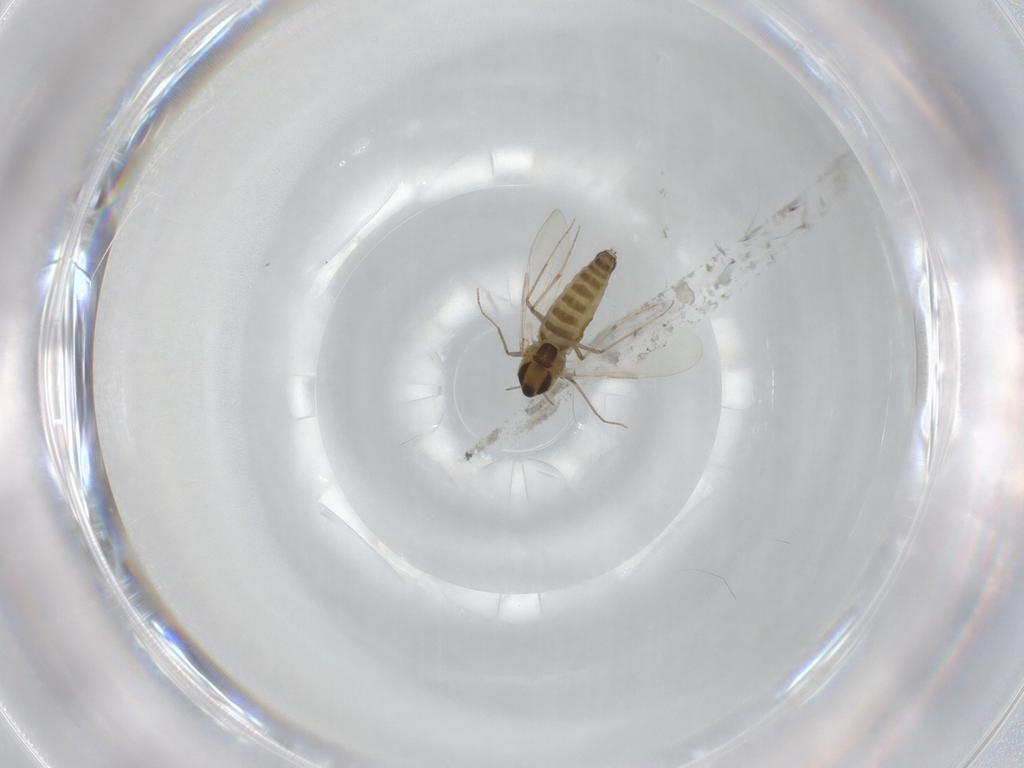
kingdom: Animalia
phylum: Arthropoda
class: Insecta
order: Diptera
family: Chironomidae
